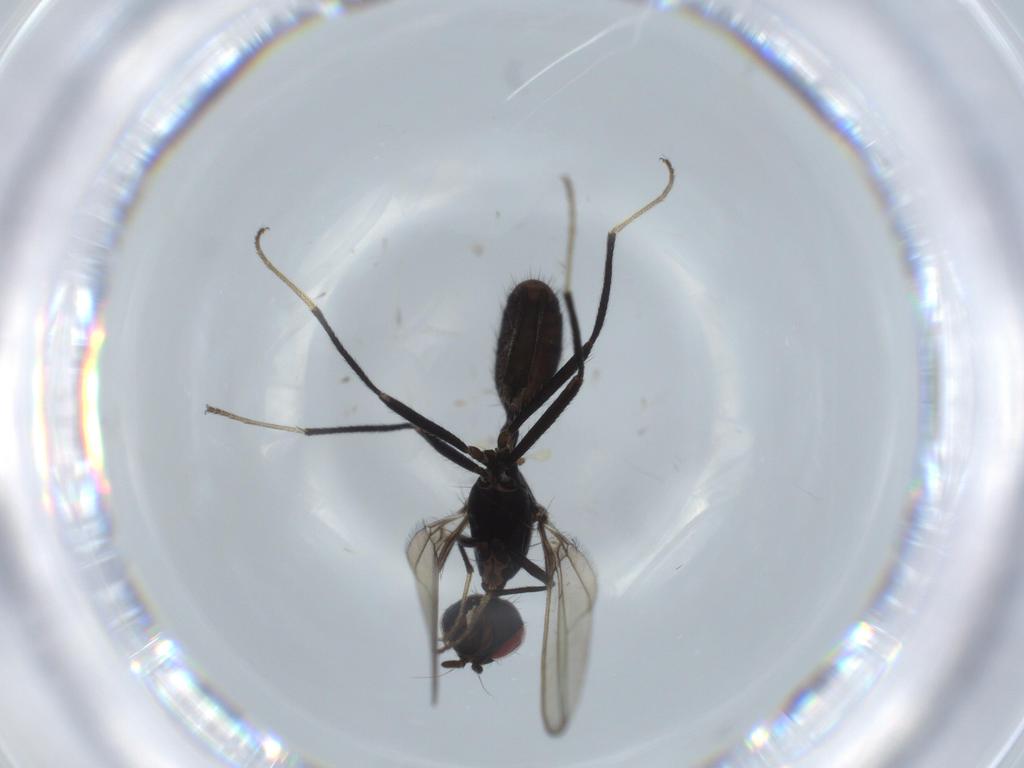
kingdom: Animalia
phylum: Arthropoda
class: Insecta
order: Diptera
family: Richardiidae
